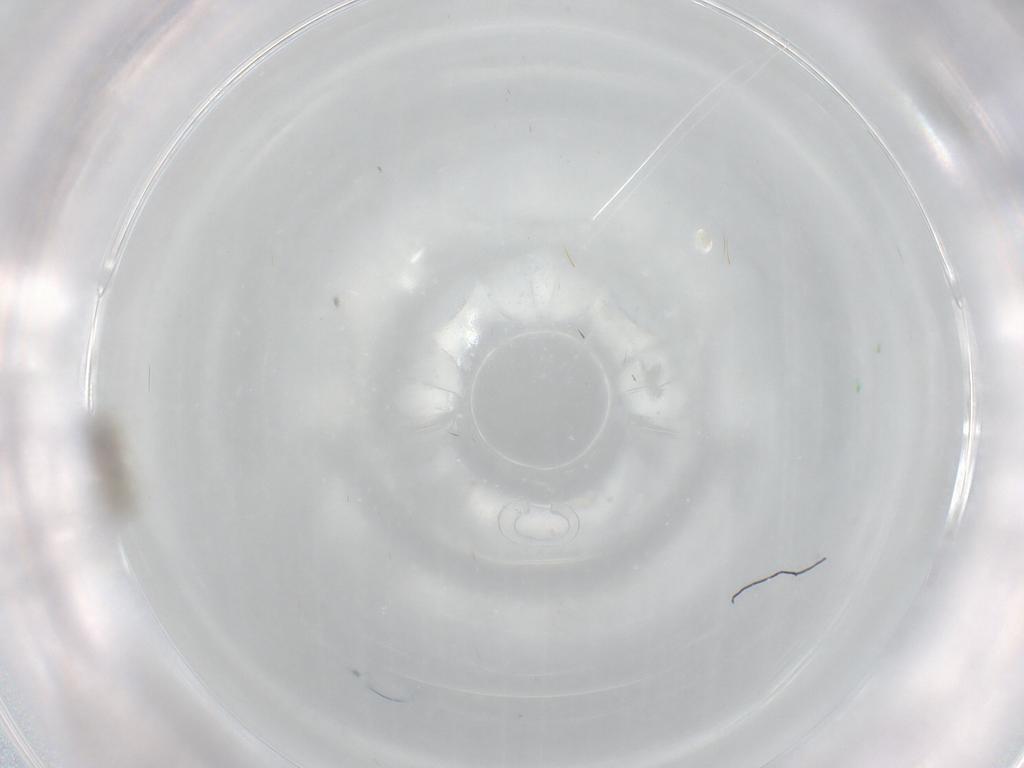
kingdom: Animalia
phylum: Arthropoda
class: Insecta
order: Diptera
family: Chironomidae
